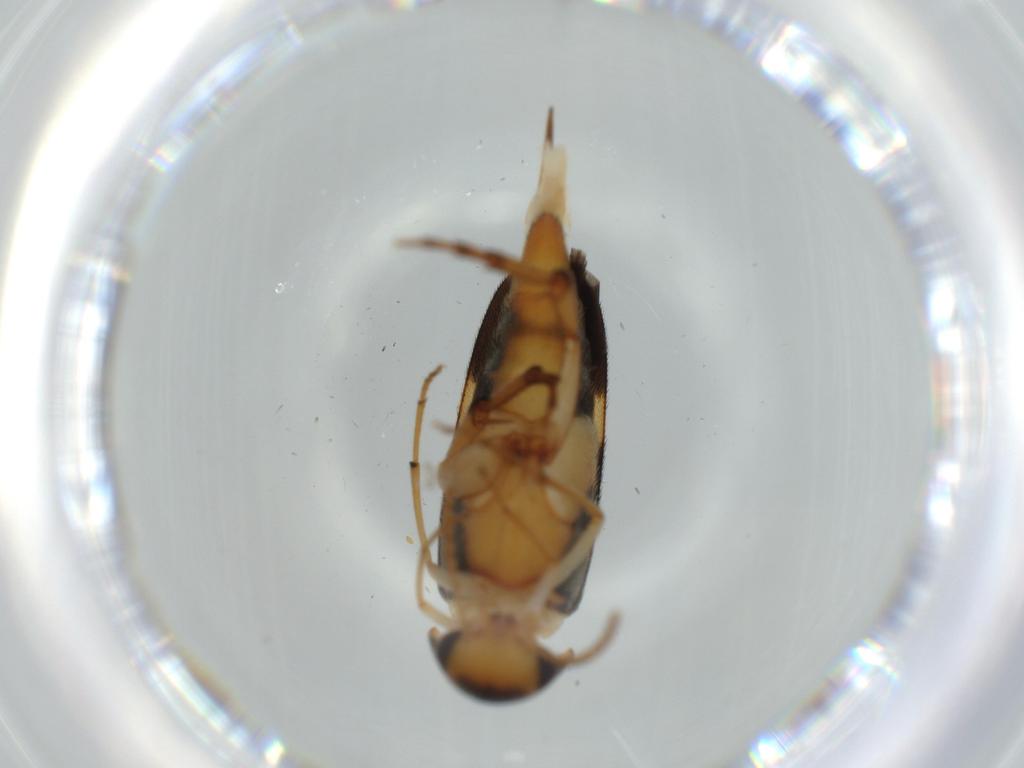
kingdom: Animalia
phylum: Arthropoda
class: Insecta
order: Coleoptera
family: Mordellidae
